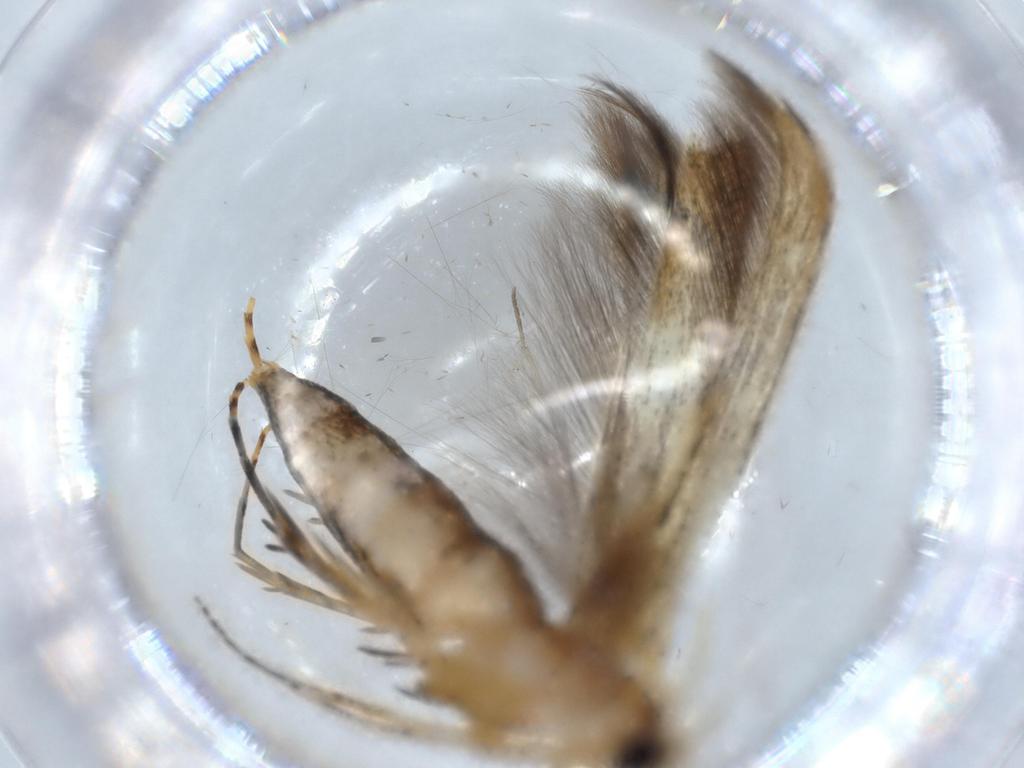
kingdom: Animalia
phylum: Arthropoda
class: Insecta
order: Lepidoptera
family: Batrachedridae
